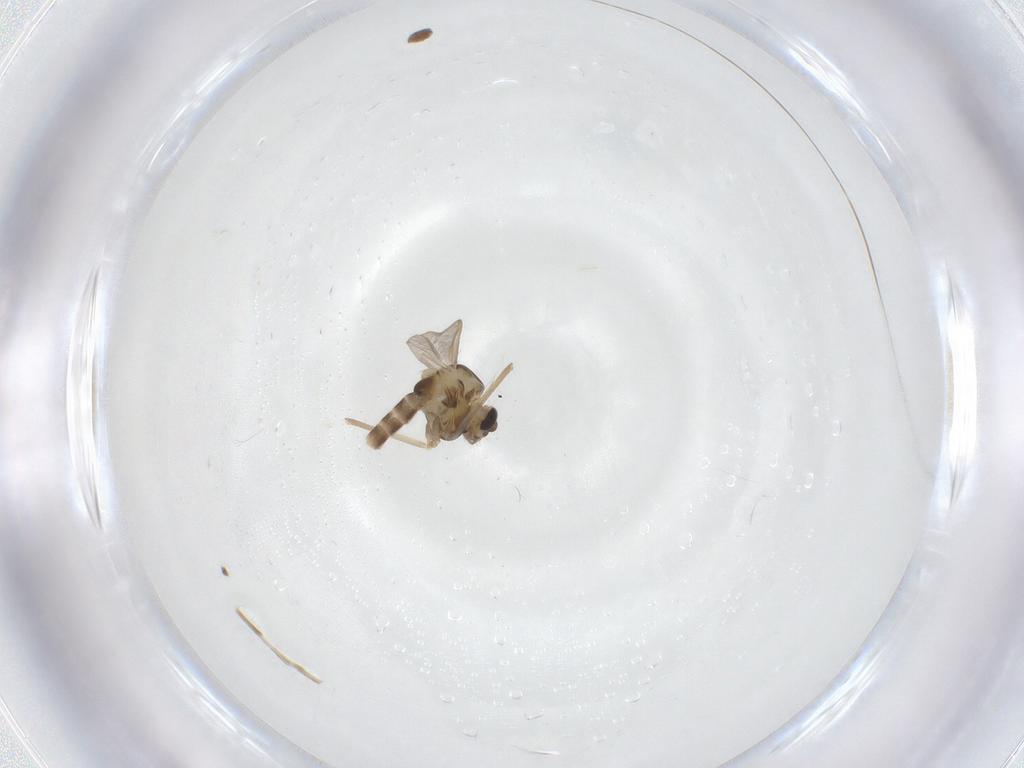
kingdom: Animalia
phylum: Arthropoda
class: Insecta
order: Diptera
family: Chironomidae
